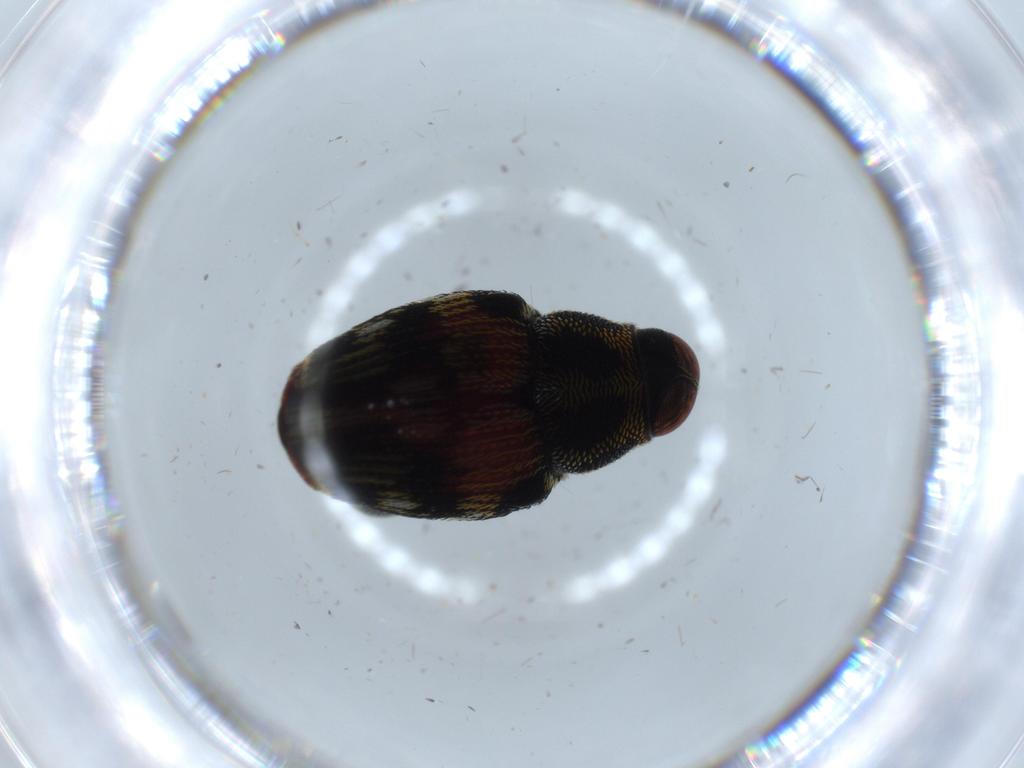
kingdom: Animalia
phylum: Arthropoda
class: Insecta
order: Coleoptera
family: Curculionidae
